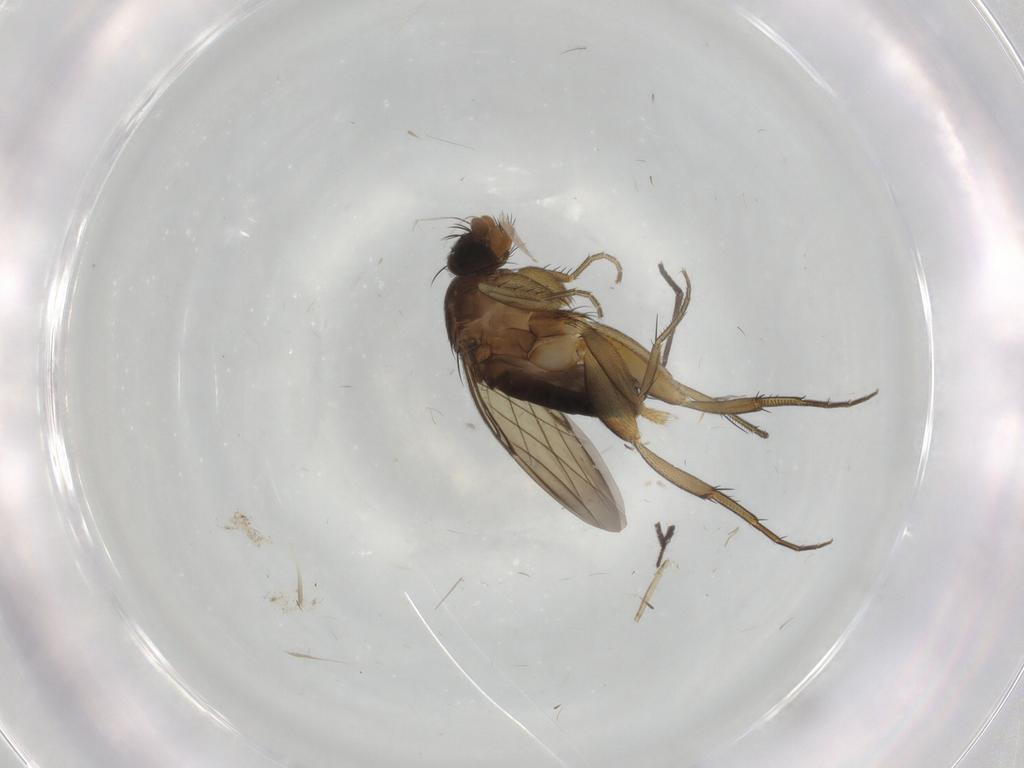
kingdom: Animalia
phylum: Arthropoda
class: Insecta
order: Diptera
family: Phoridae
